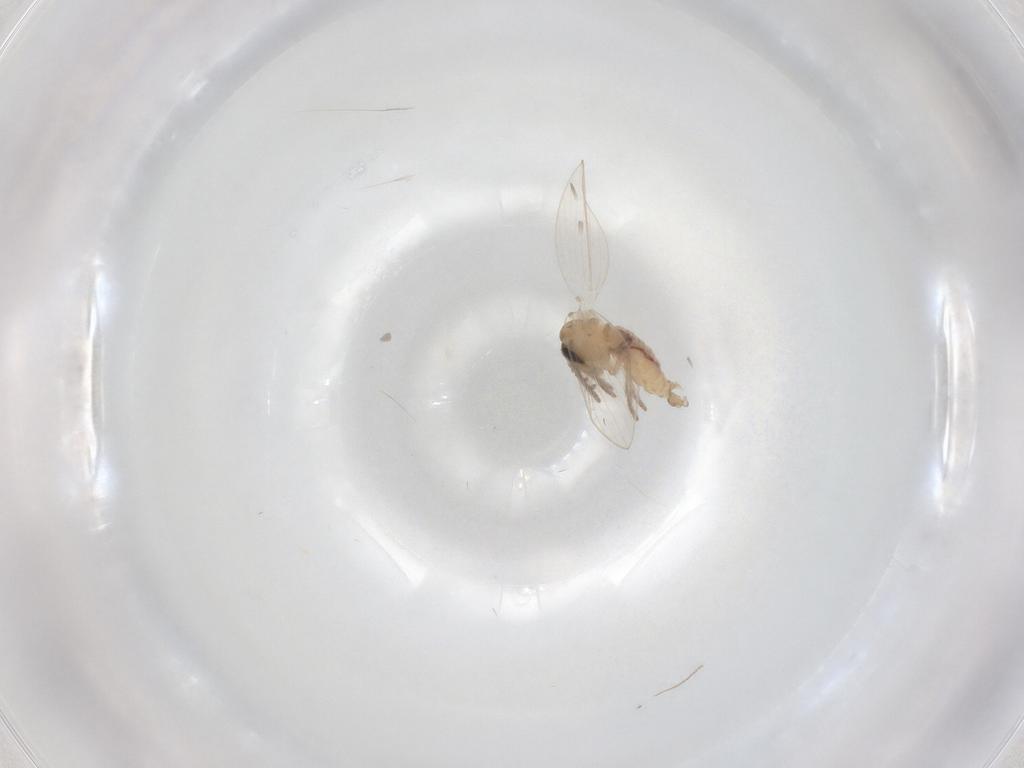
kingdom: Animalia
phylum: Arthropoda
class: Insecta
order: Diptera
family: Psychodidae
